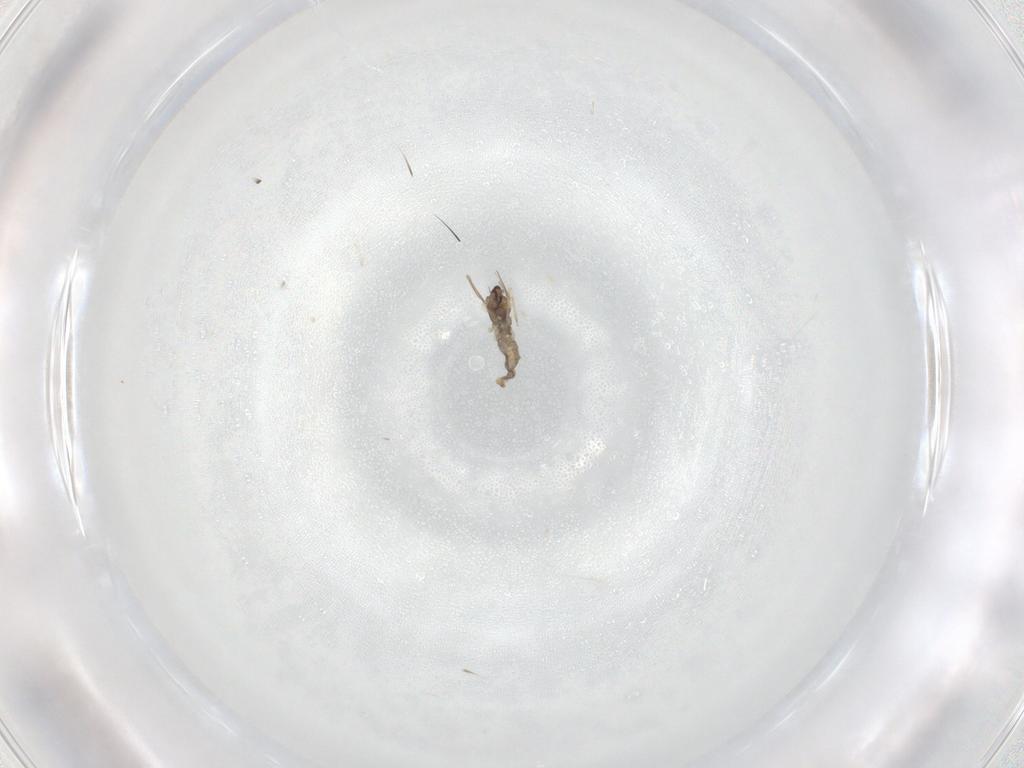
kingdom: Animalia
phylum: Arthropoda
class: Insecta
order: Diptera
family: Cecidomyiidae
